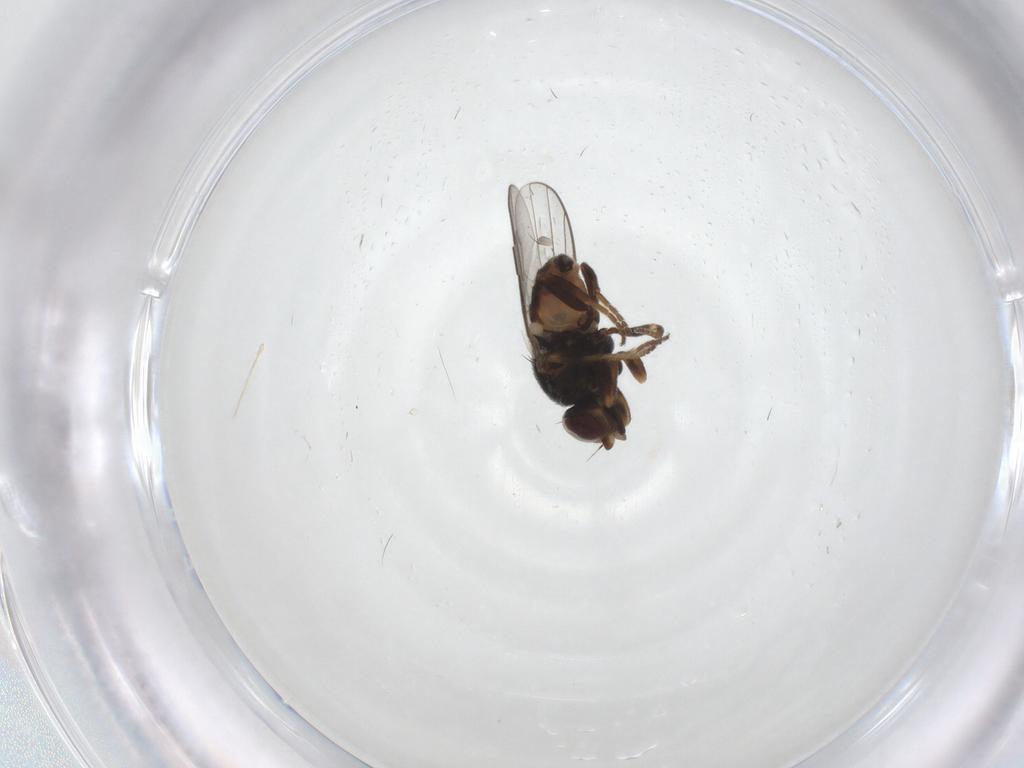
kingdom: Animalia
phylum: Arthropoda
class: Insecta
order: Diptera
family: Chloropidae
